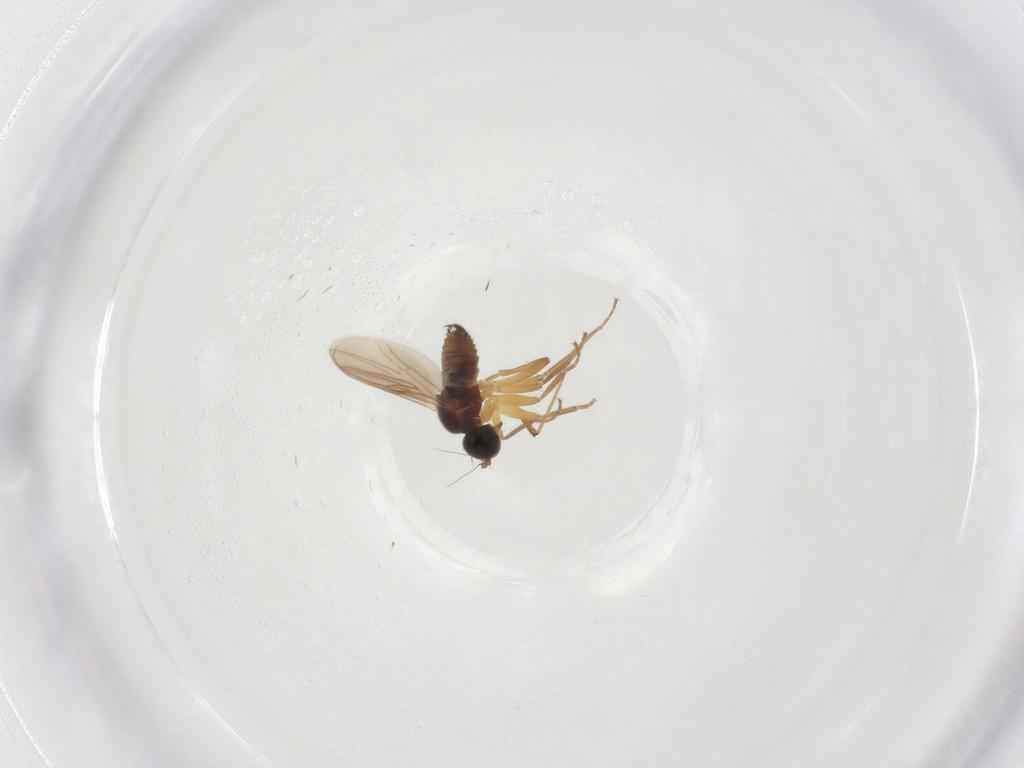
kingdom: Animalia
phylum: Arthropoda
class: Insecta
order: Diptera
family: Hybotidae
